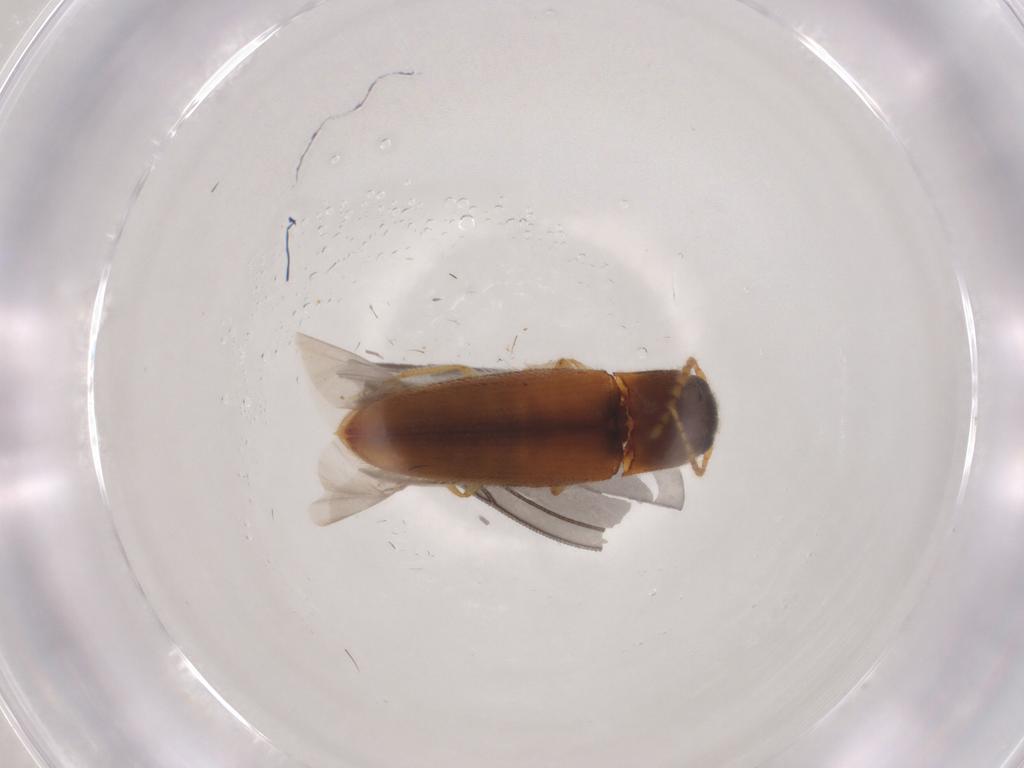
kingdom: Animalia
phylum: Arthropoda
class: Insecta
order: Coleoptera
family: Elateridae
